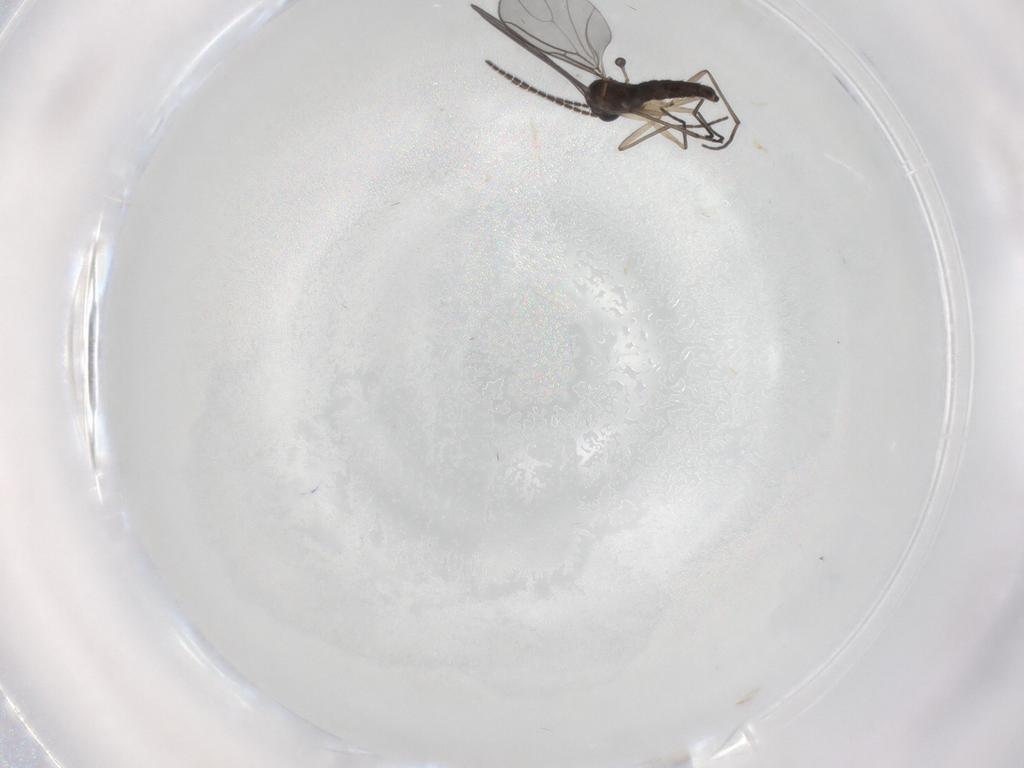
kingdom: Animalia
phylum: Arthropoda
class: Insecta
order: Diptera
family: Sciaridae
